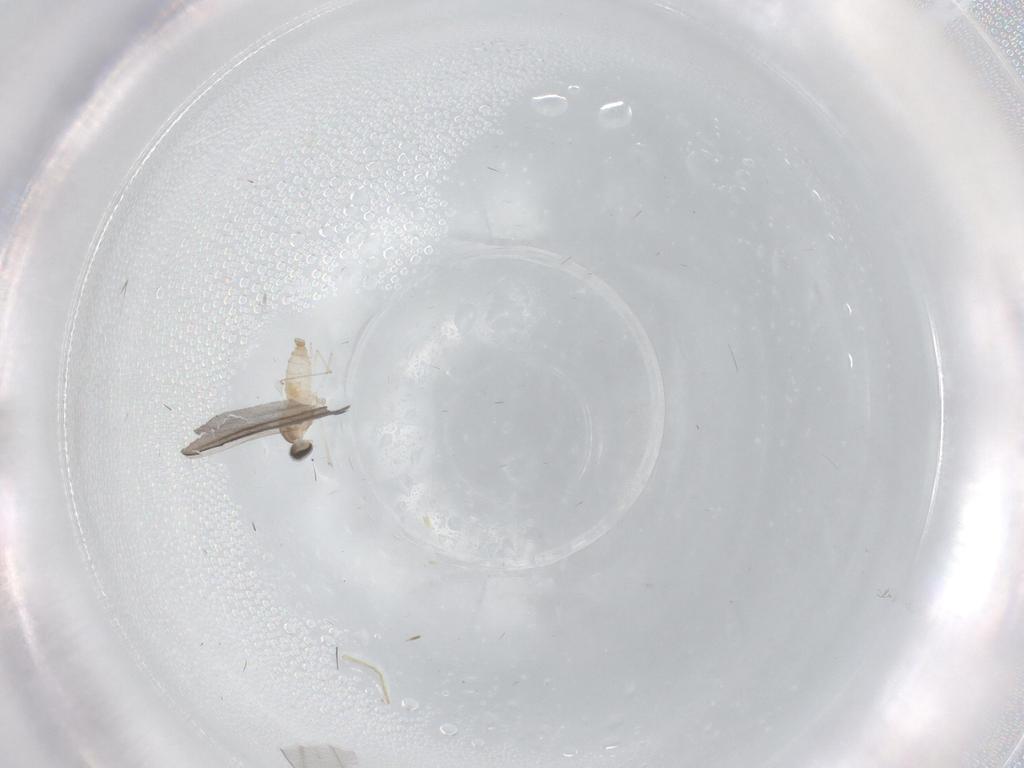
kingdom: Animalia
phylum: Arthropoda
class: Insecta
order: Diptera
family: Cecidomyiidae
